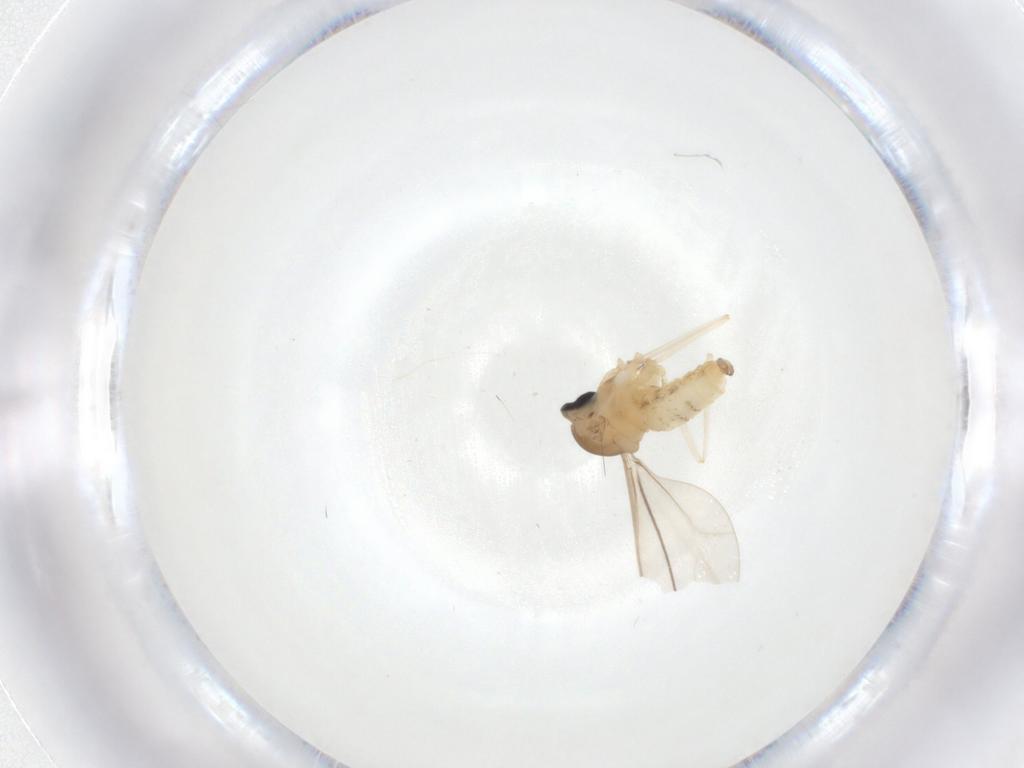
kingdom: Animalia
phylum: Arthropoda
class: Insecta
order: Diptera
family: Cecidomyiidae
